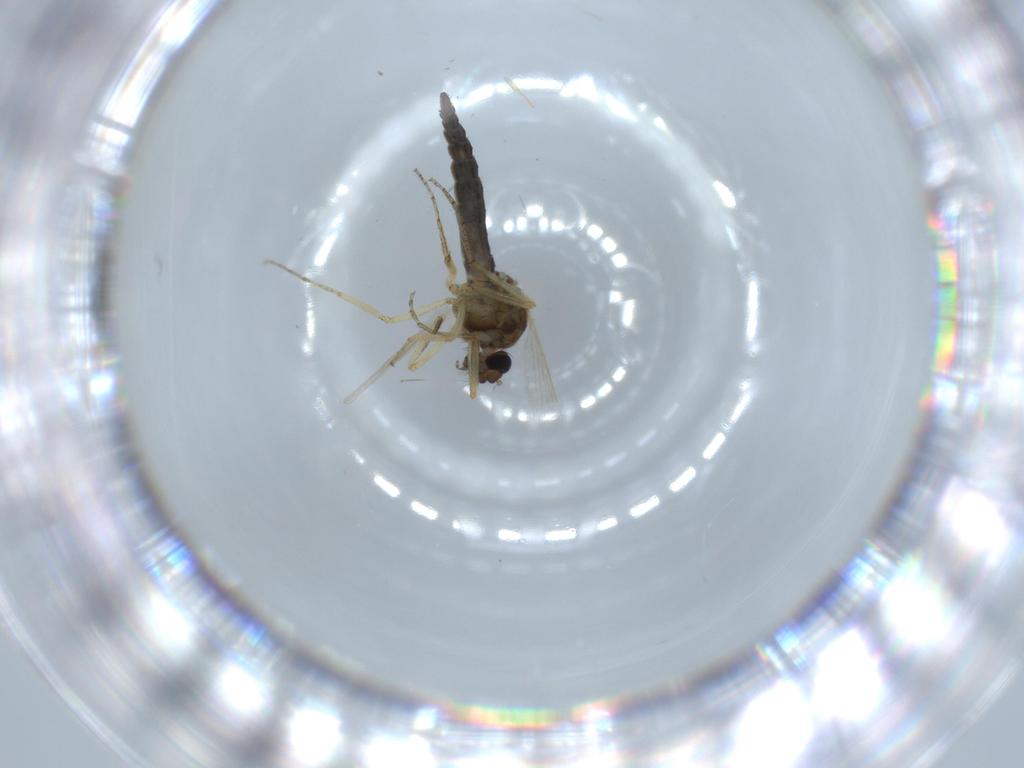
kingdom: Animalia
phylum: Arthropoda
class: Insecta
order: Diptera
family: Ceratopogonidae
